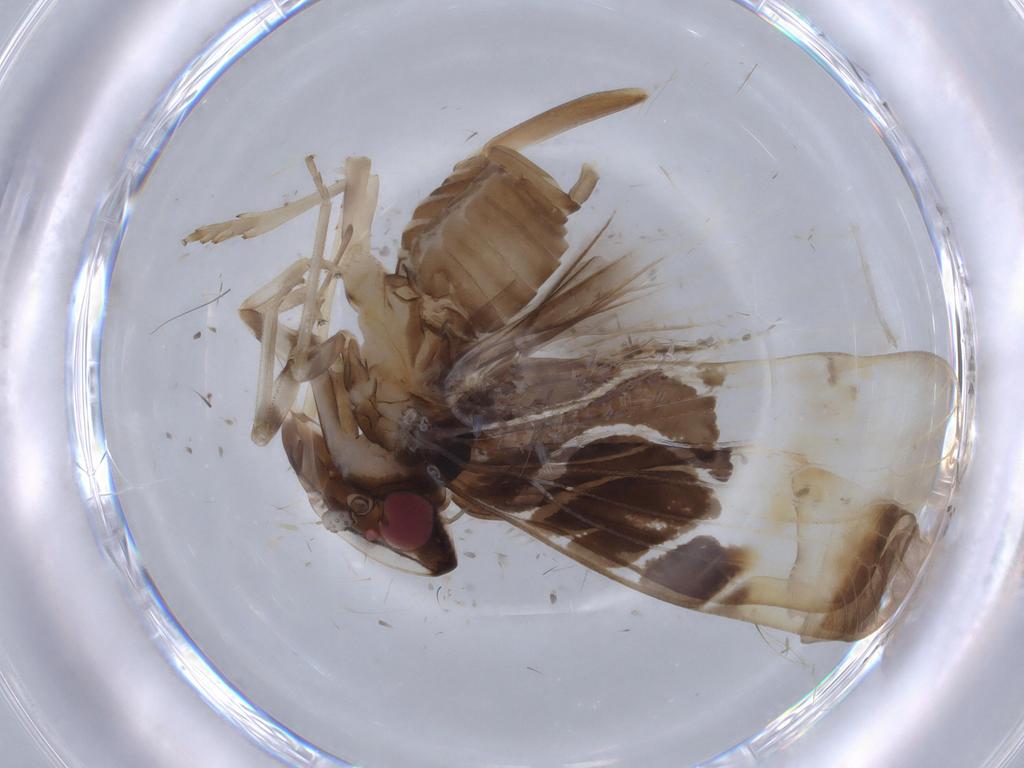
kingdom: Animalia
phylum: Arthropoda
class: Insecta
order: Hemiptera
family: Cixiidae
